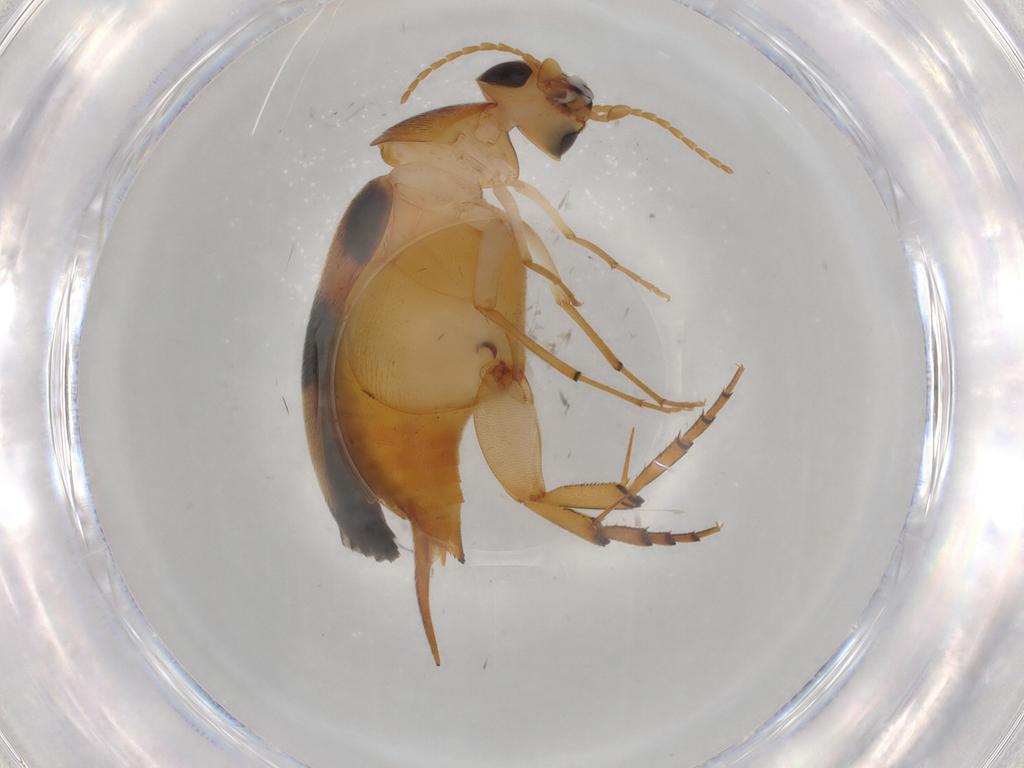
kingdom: Animalia
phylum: Arthropoda
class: Insecta
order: Coleoptera
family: Mordellidae
